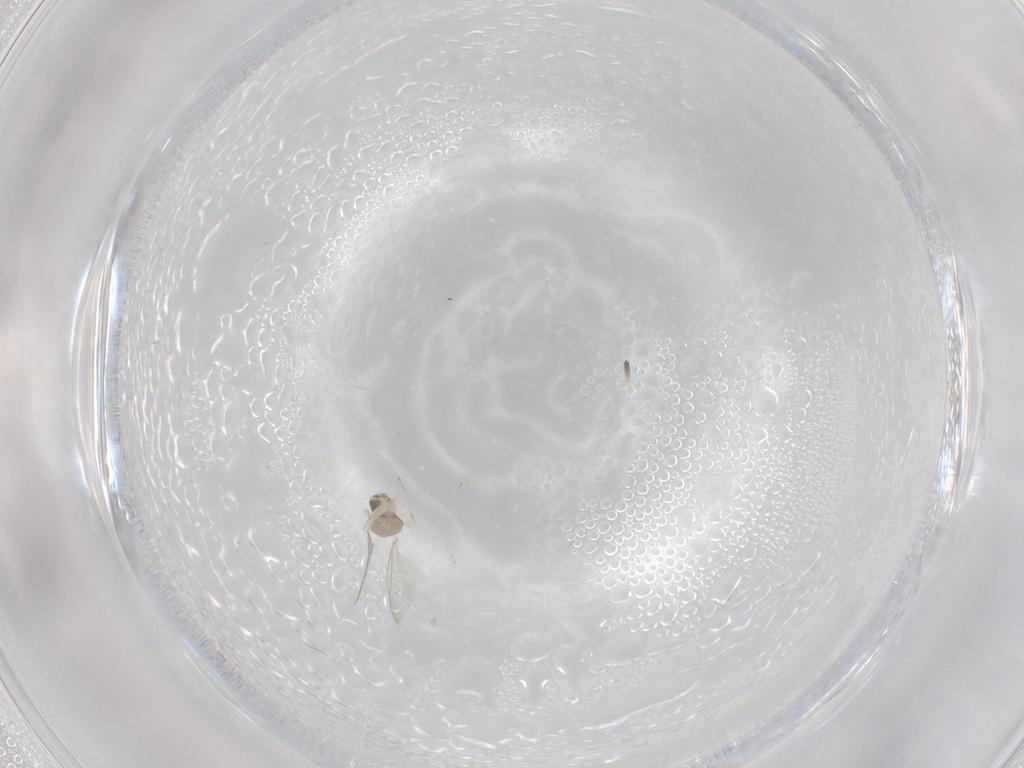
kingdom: Animalia
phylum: Arthropoda
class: Insecta
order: Diptera
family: Cecidomyiidae
